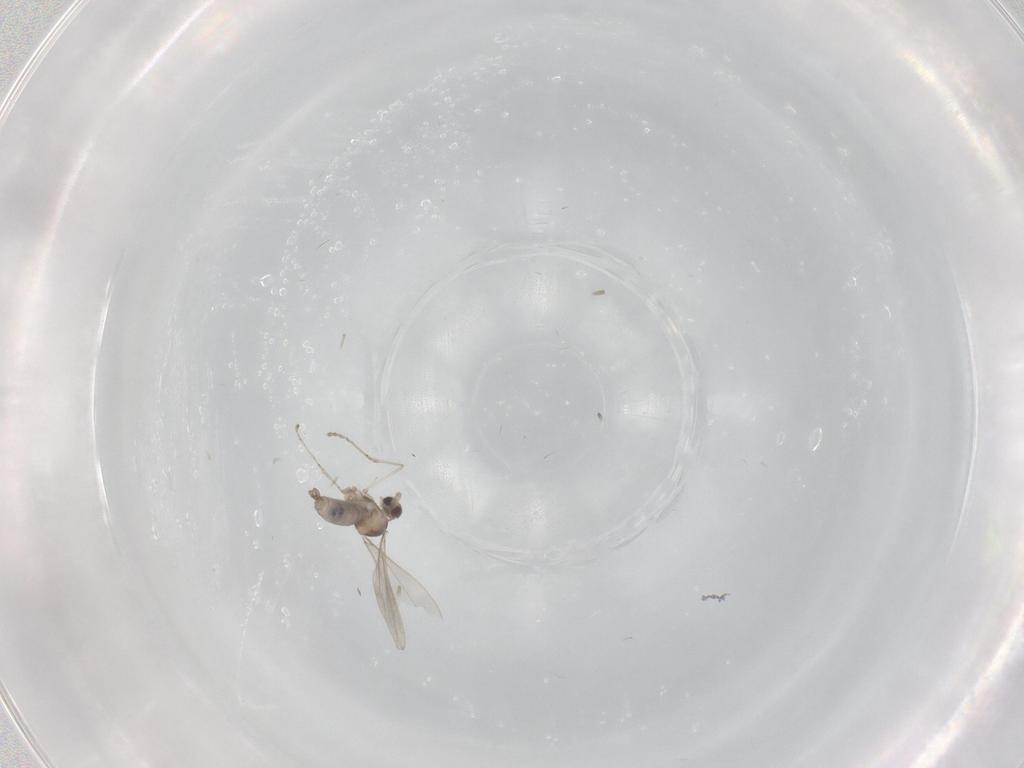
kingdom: Animalia
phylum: Arthropoda
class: Insecta
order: Diptera
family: Cecidomyiidae
